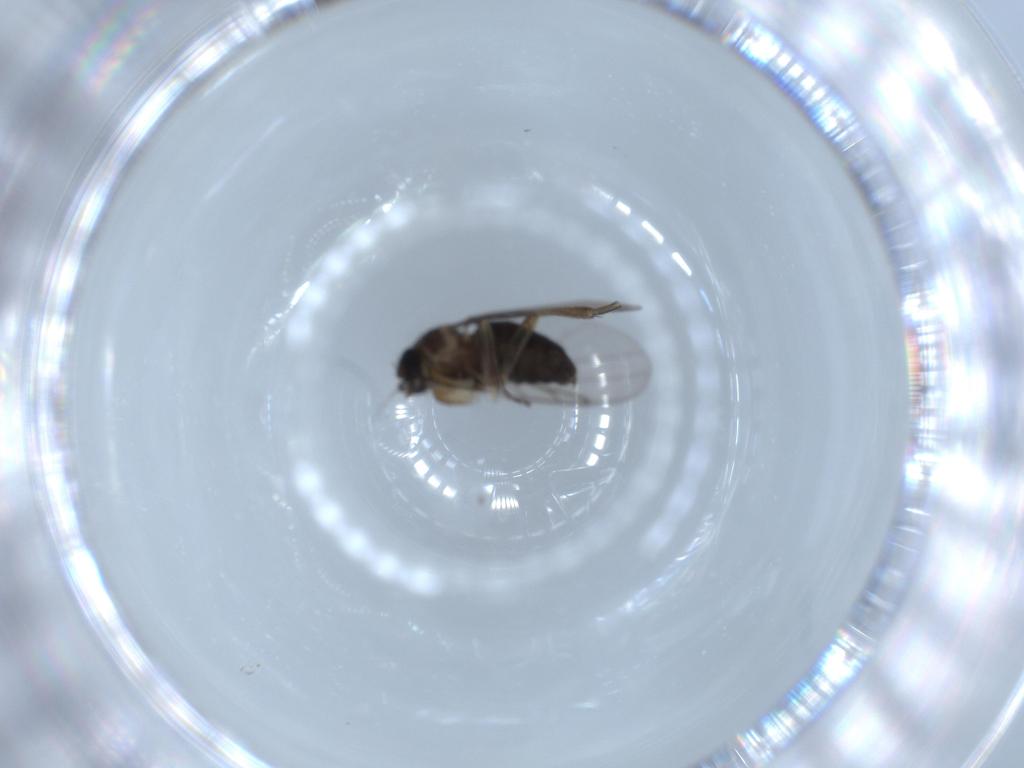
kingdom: Animalia
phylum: Arthropoda
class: Insecta
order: Diptera
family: Phoridae
